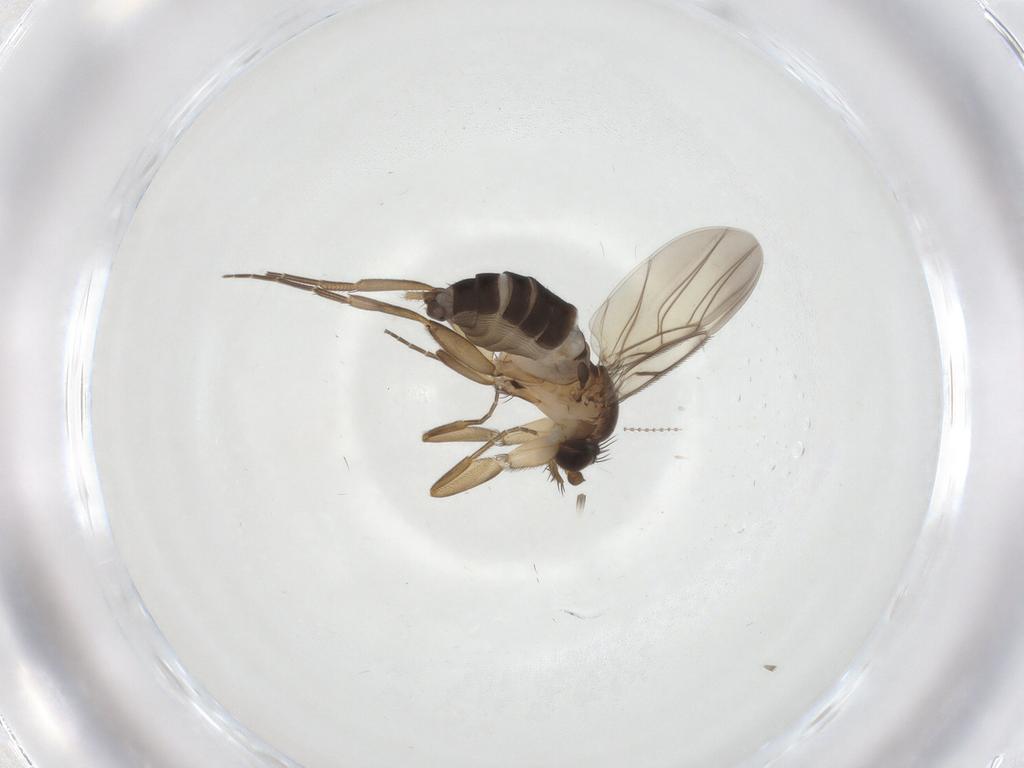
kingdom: Animalia
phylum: Arthropoda
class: Insecta
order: Diptera
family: Phoridae
